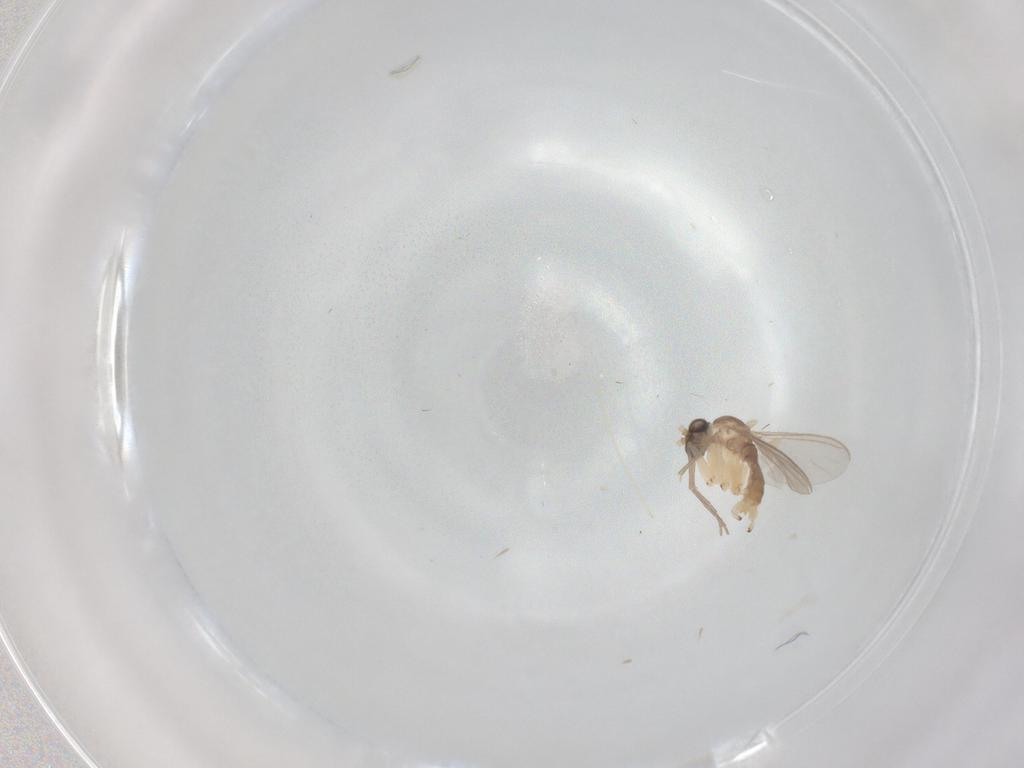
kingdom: Animalia
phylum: Arthropoda
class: Insecta
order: Diptera
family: Sciaridae
